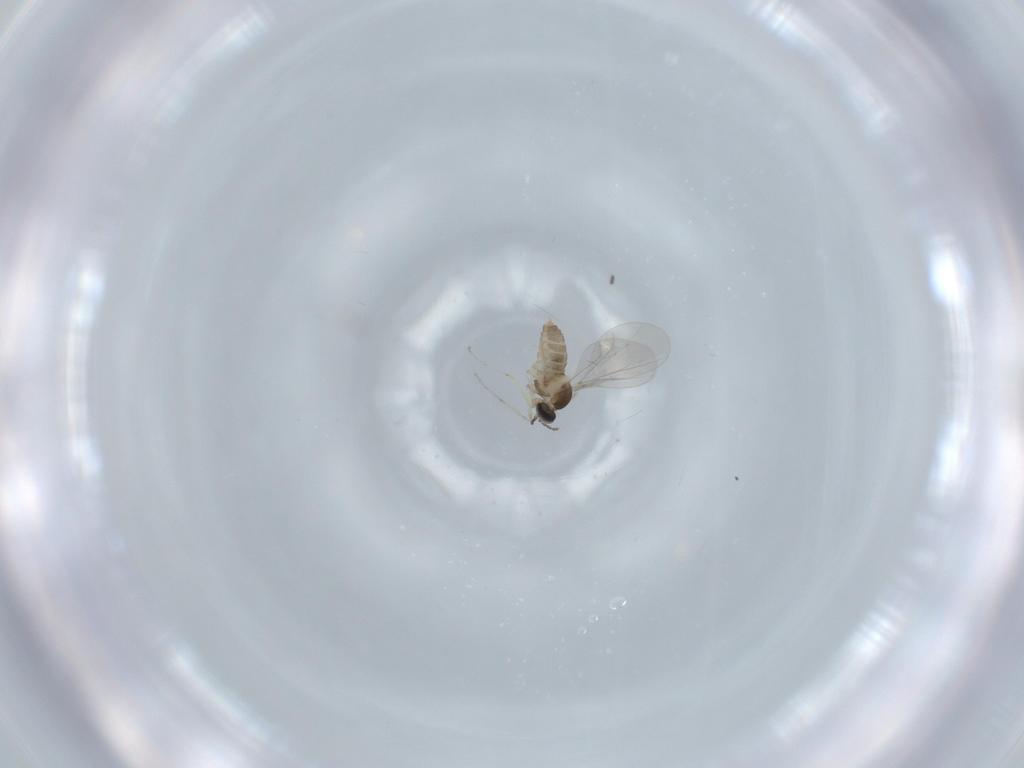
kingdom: Animalia
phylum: Arthropoda
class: Insecta
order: Diptera
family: Cecidomyiidae
